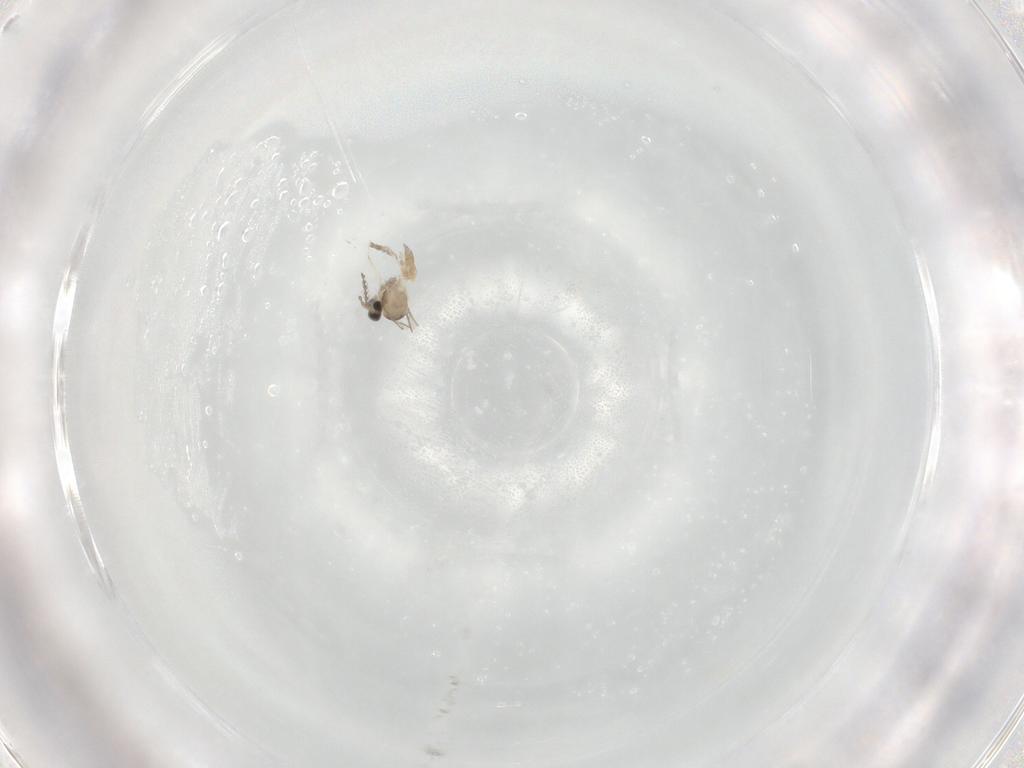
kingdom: Animalia
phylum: Arthropoda
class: Insecta
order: Diptera
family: Cecidomyiidae
